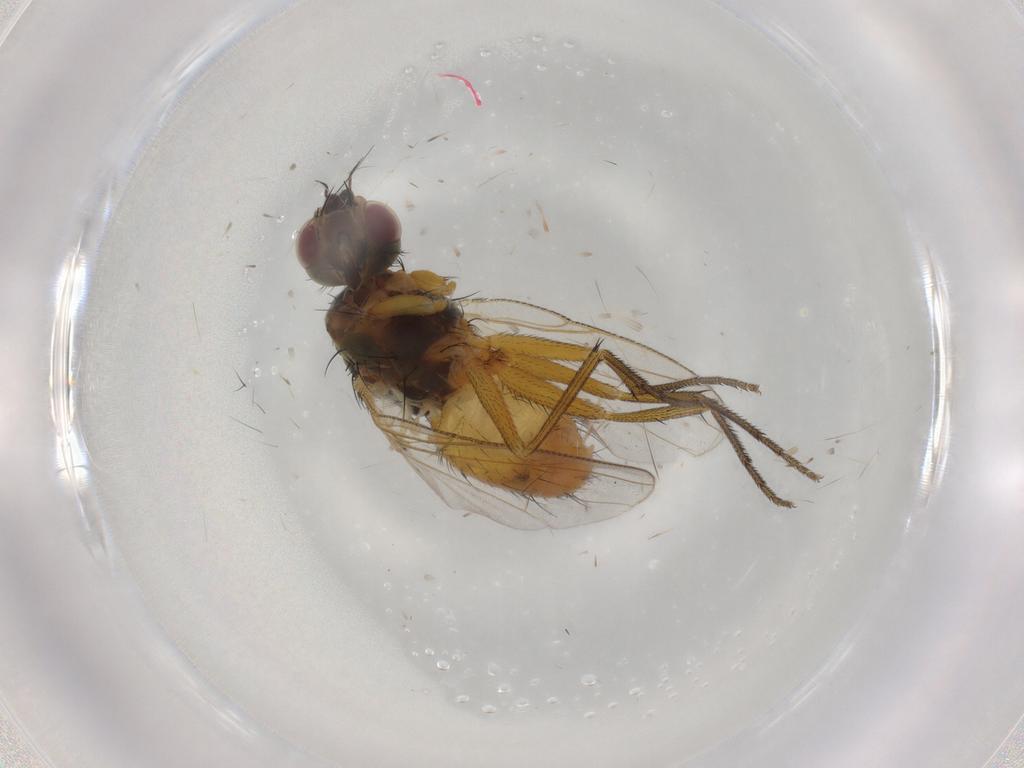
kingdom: Animalia
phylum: Arthropoda
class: Insecta
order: Diptera
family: Muscidae
